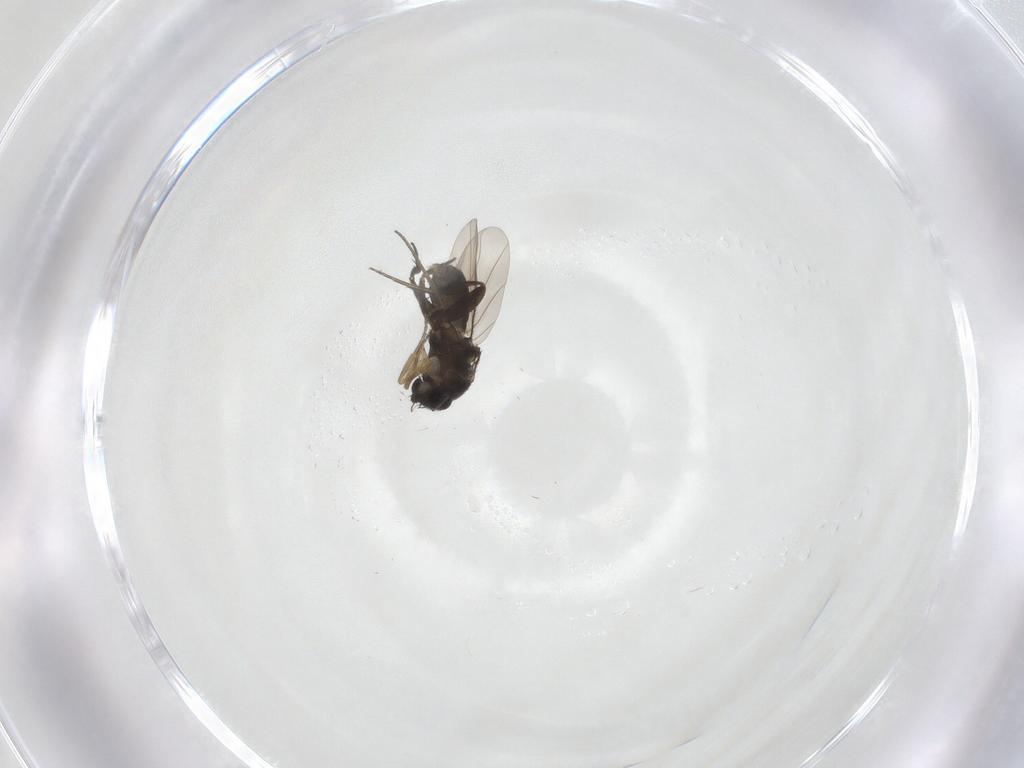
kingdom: Animalia
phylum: Arthropoda
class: Insecta
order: Diptera
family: Phoridae
